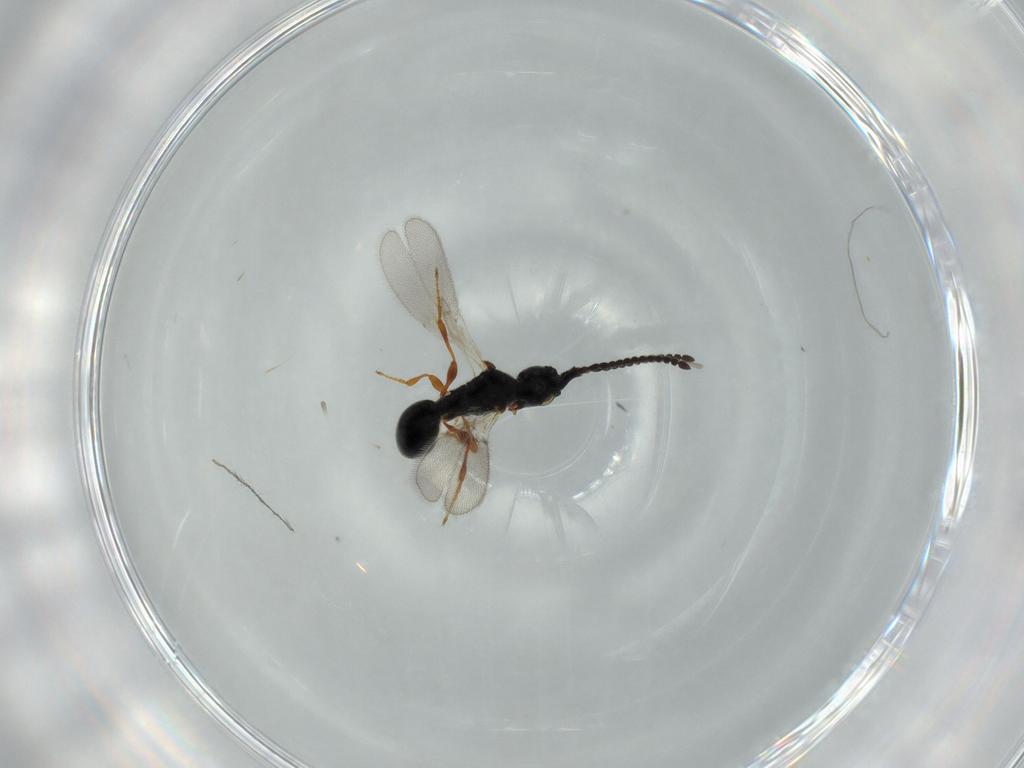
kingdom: Animalia
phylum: Arthropoda
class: Insecta
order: Hymenoptera
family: Diapriidae
